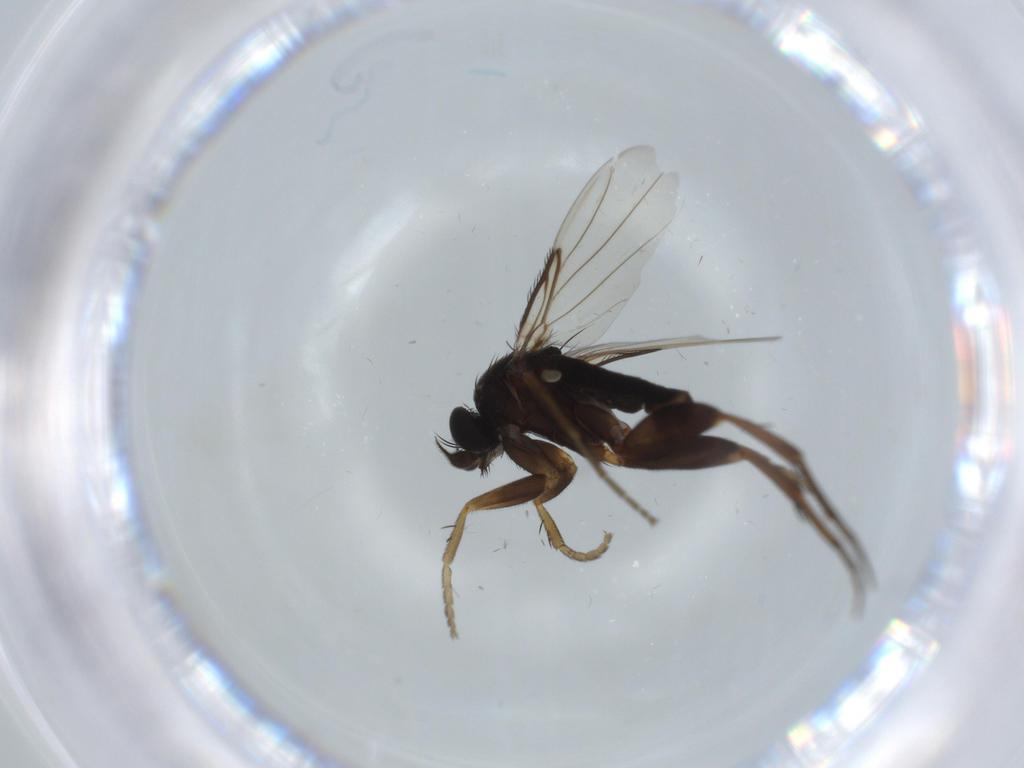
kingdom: Animalia
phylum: Arthropoda
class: Insecta
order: Diptera
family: Phoridae
